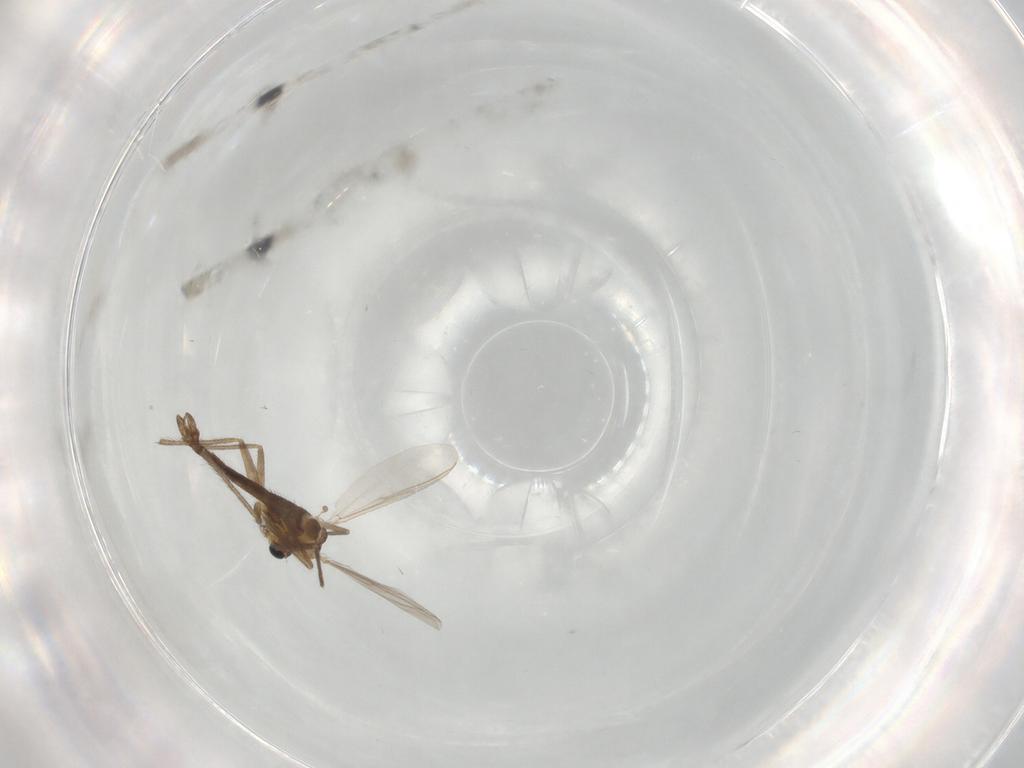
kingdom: Animalia
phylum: Arthropoda
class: Insecta
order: Diptera
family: Chironomidae
